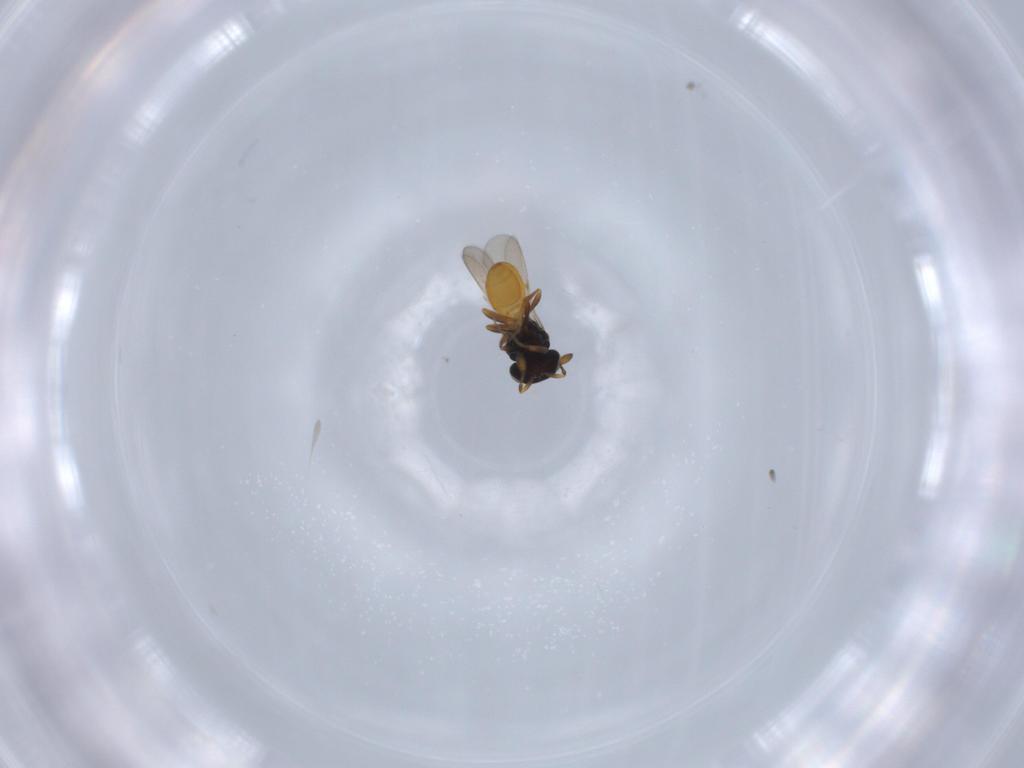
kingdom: Animalia
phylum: Arthropoda
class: Insecta
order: Hymenoptera
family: Scelionidae
